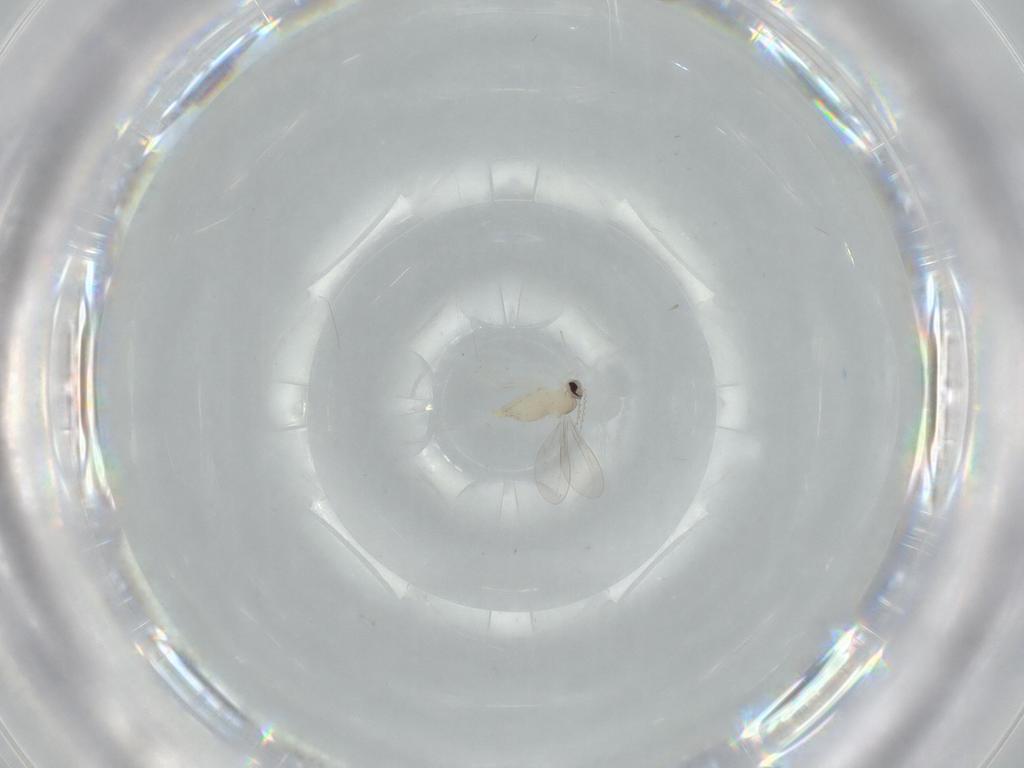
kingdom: Animalia
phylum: Arthropoda
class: Insecta
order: Diptera
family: Cecidomyiidae
